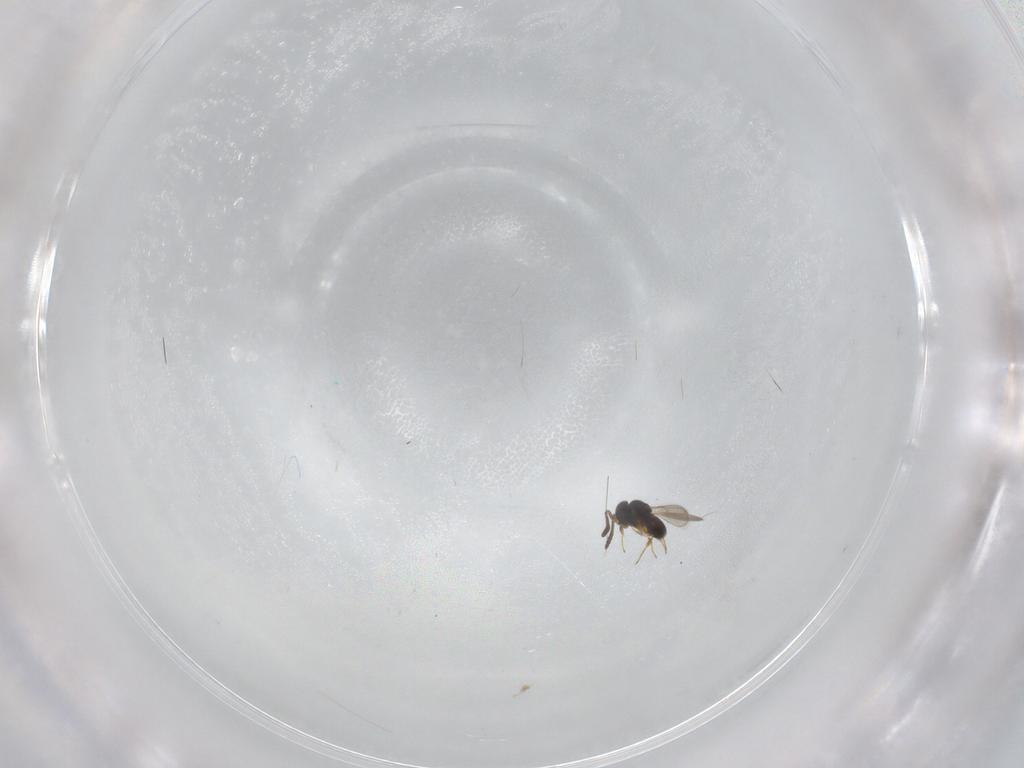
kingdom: Animalia
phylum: Arthropoda
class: Insecta
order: Hymenoptera
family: Scelionidae
